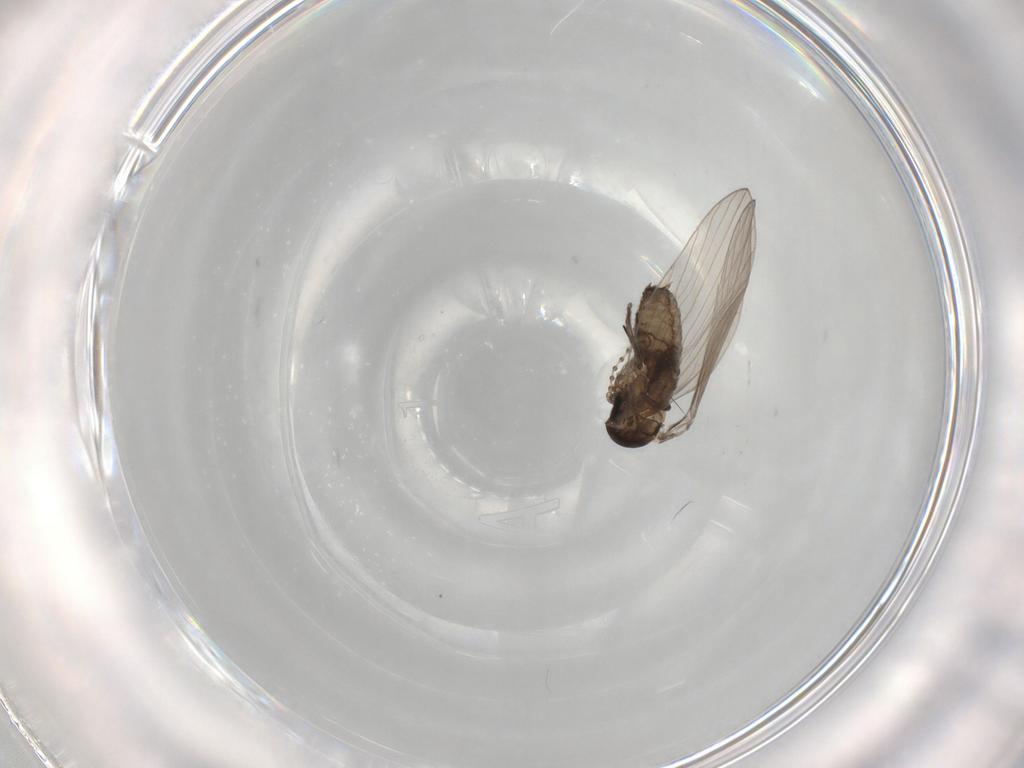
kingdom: Animalia
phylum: Arthropoda
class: Insecta
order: Diptera
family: Psychodidae
